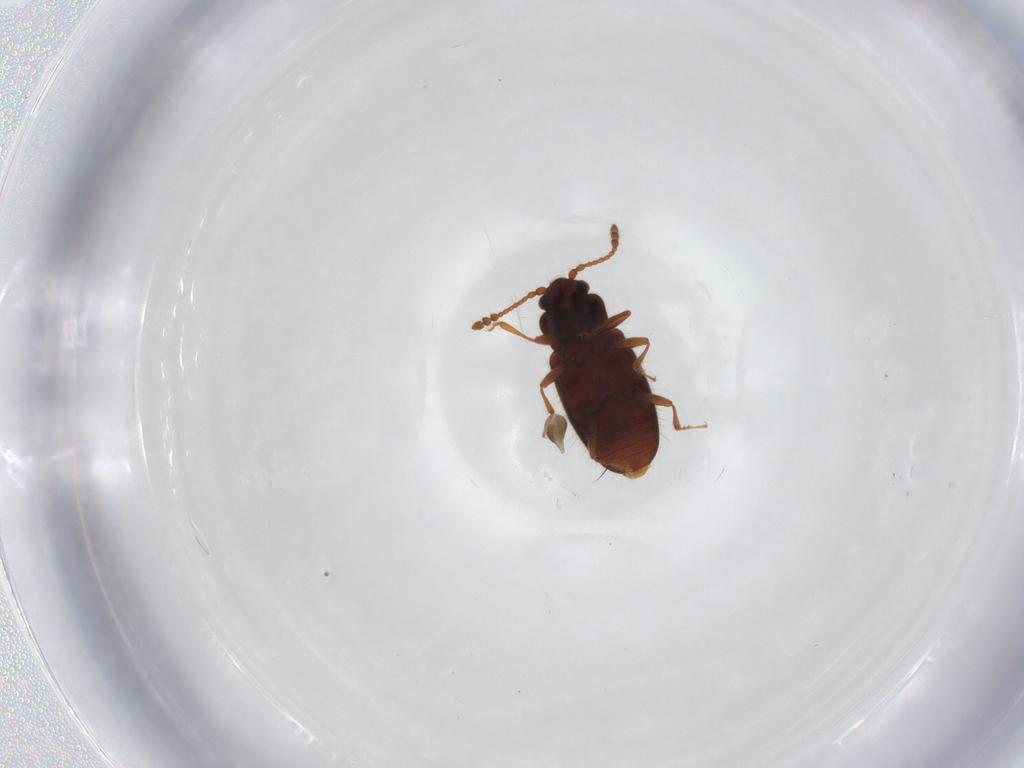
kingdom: Animalia
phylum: Arthropoda
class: Insecta
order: Coleoptera
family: Cryptophagidae
